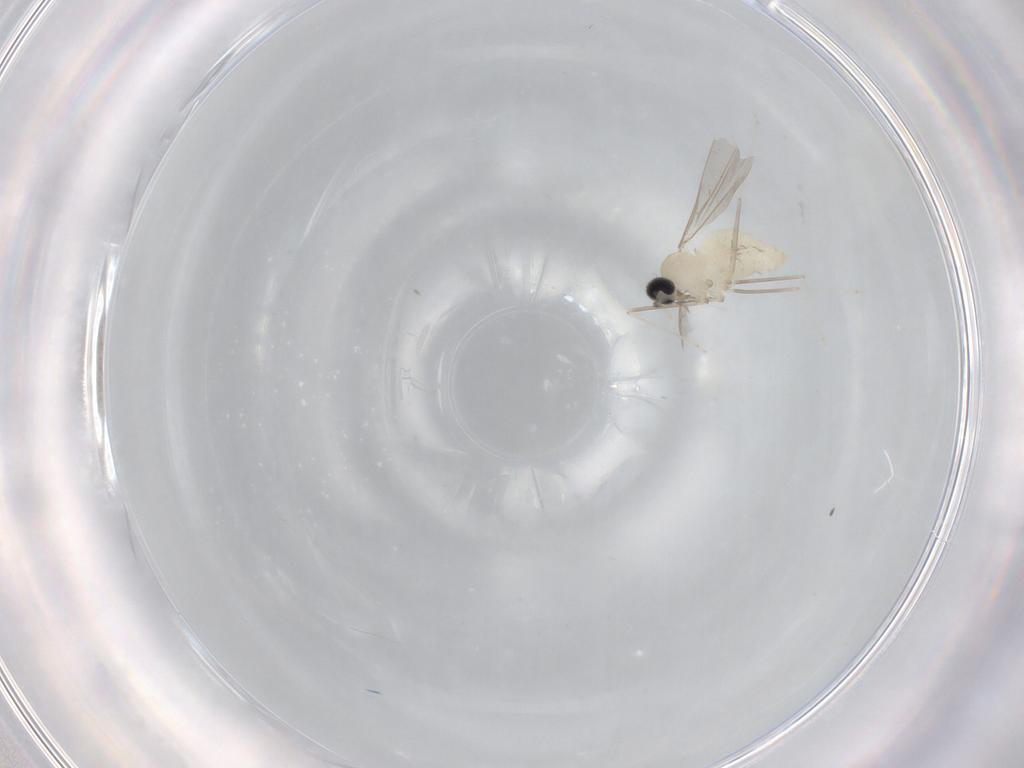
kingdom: Animalia
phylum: Arthropoda
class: Insecta
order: Diptera
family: Cecidomyiidae
